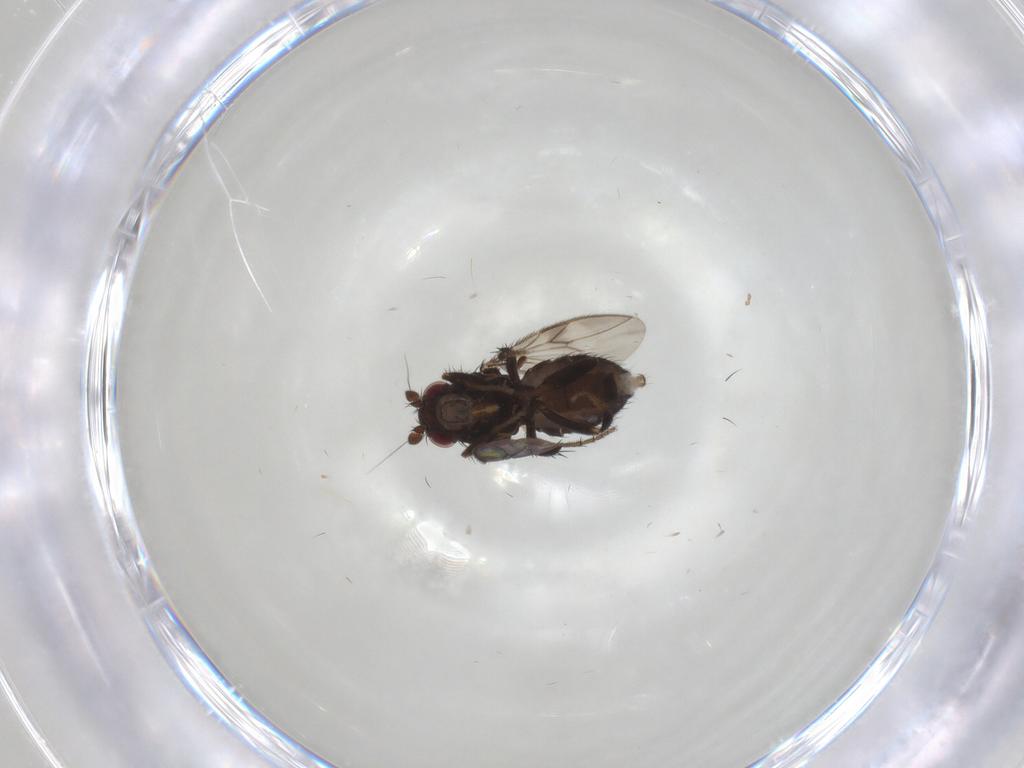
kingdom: Animalia
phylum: Arthropoda
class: Insecta
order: Diptera
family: Sphaeroceridae
